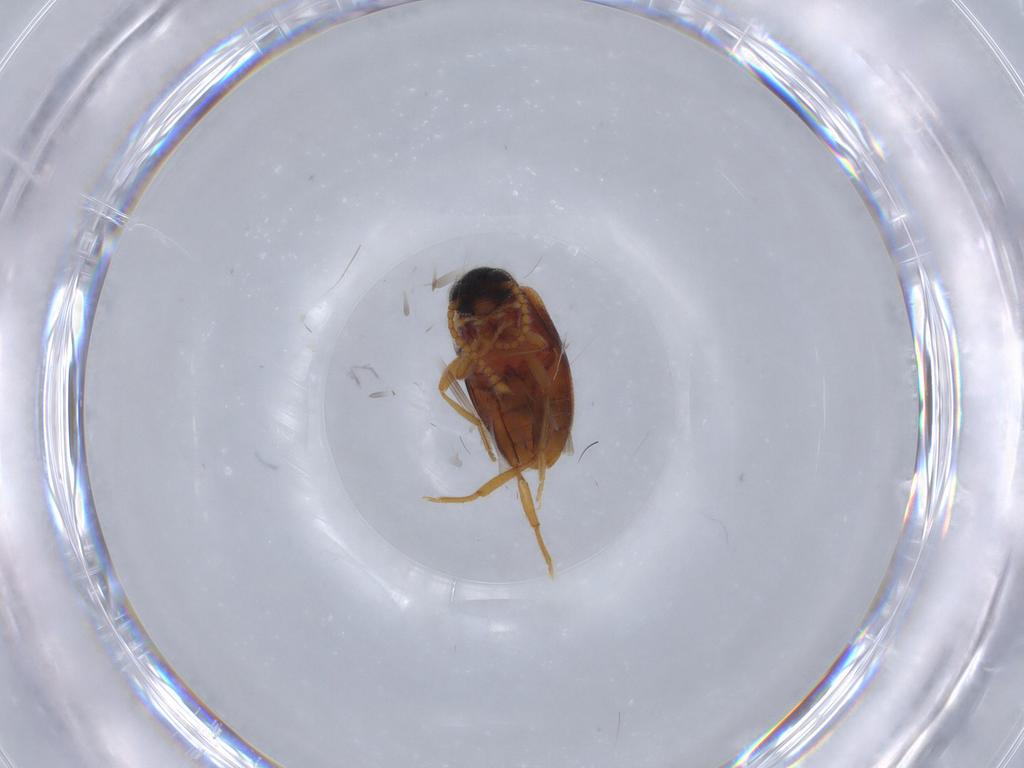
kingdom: Animalia
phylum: Arthropoda
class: Insecta
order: Coleoptera
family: Aderidae
